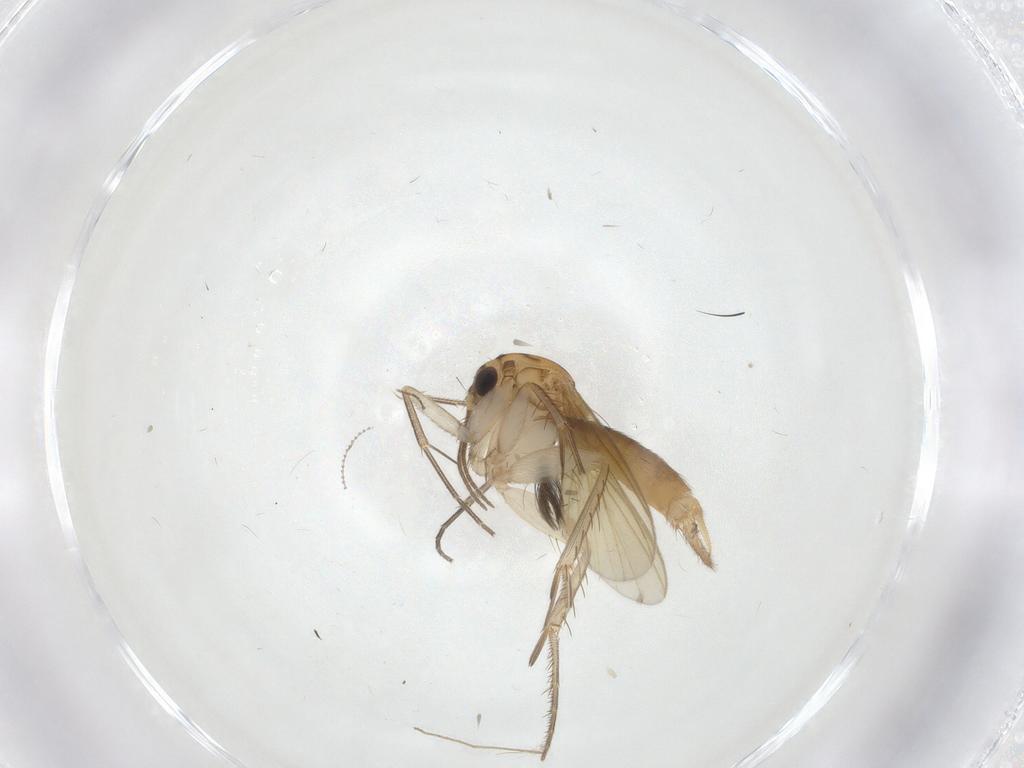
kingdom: Animalia
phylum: Arthropoda
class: Insecta
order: Diptera
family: Mycetophilidae
